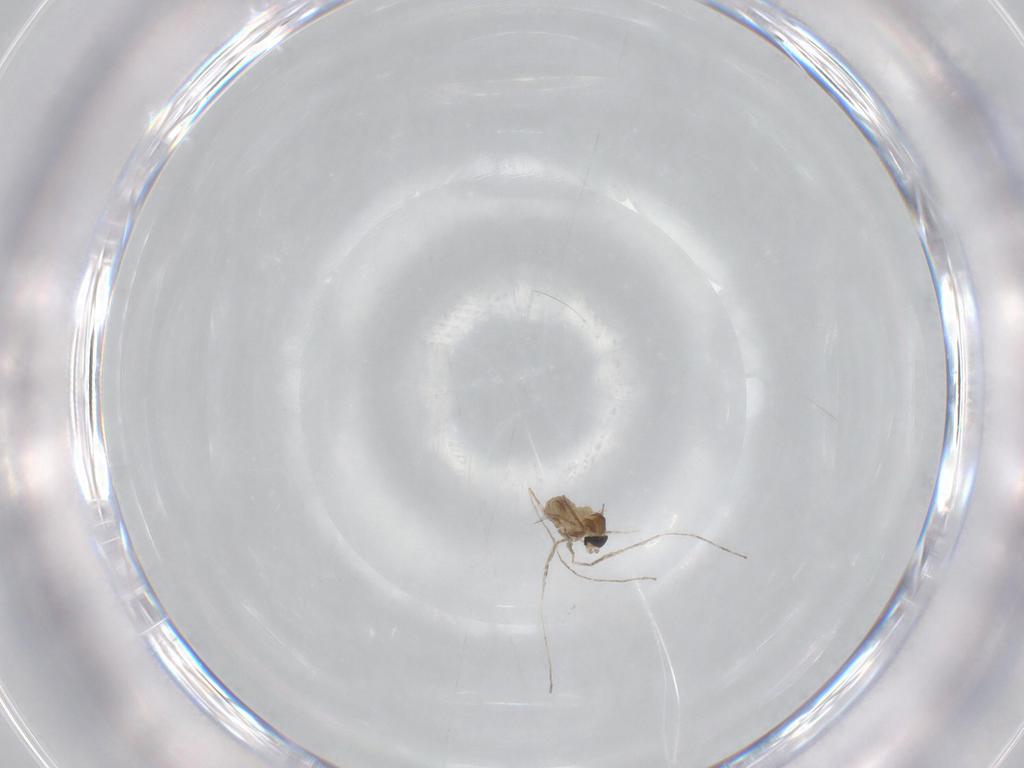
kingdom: Animalia
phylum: Arthropoda
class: Insecta
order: Diptera
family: Cecidomyiidae
